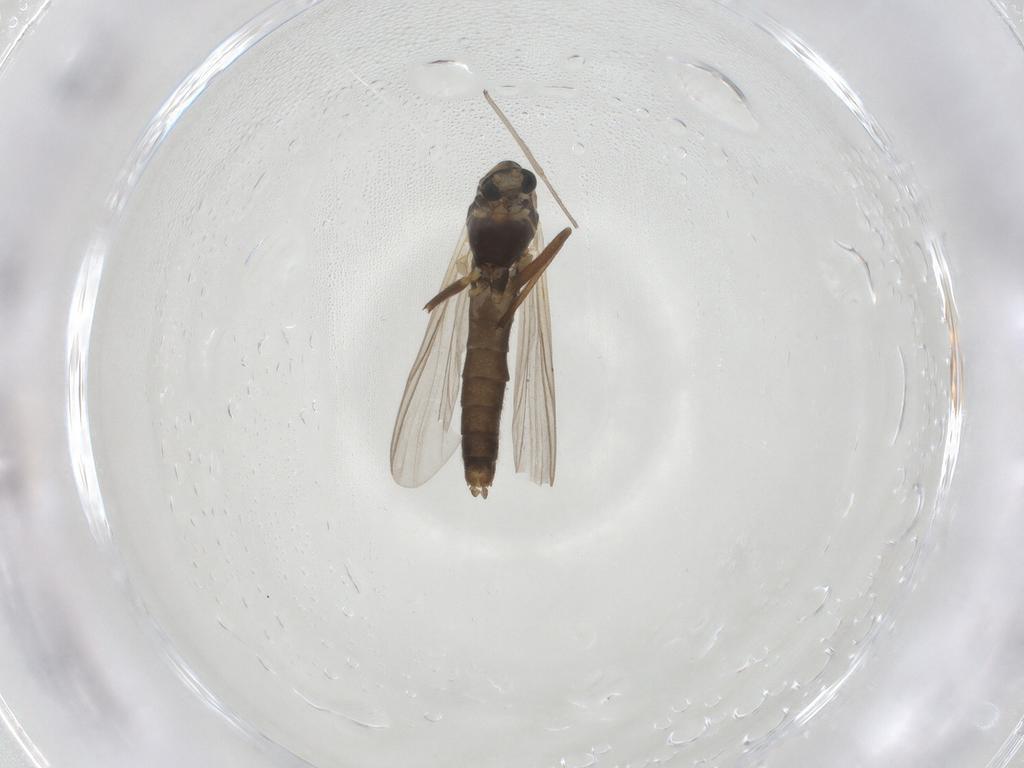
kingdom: Animalia
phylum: Arthropoda
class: Insecta
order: Diptera
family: Chironomidae
